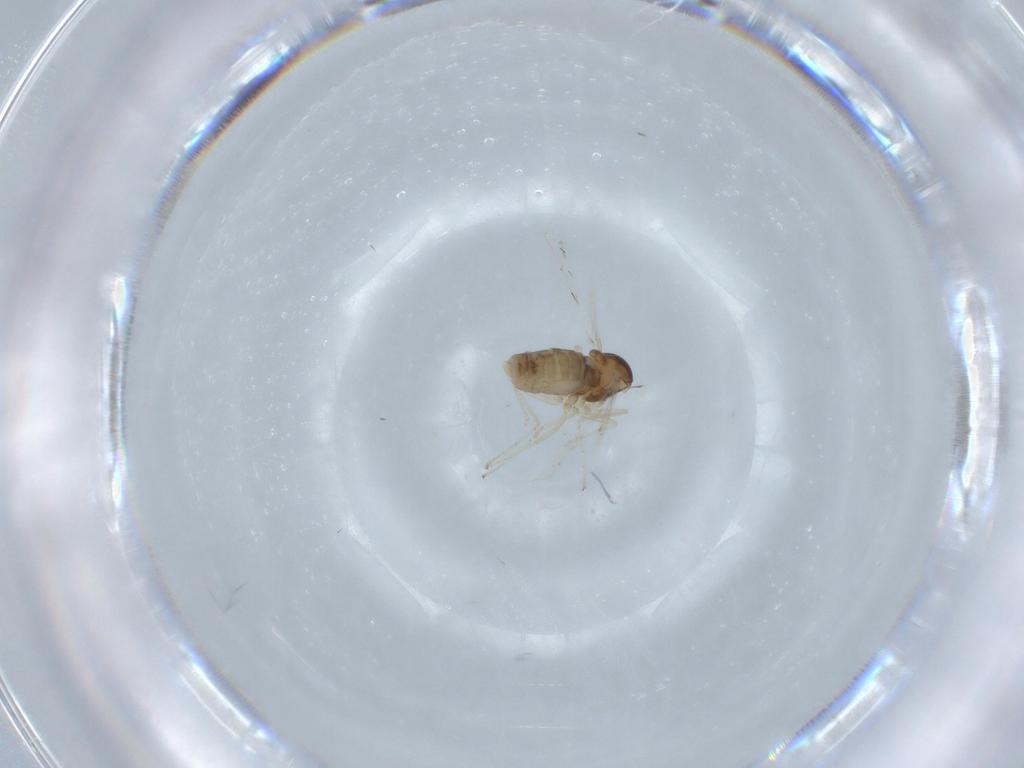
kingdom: Animalia
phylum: Arthropoda
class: Insecta
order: Diptera
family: Cecidomyiidae
